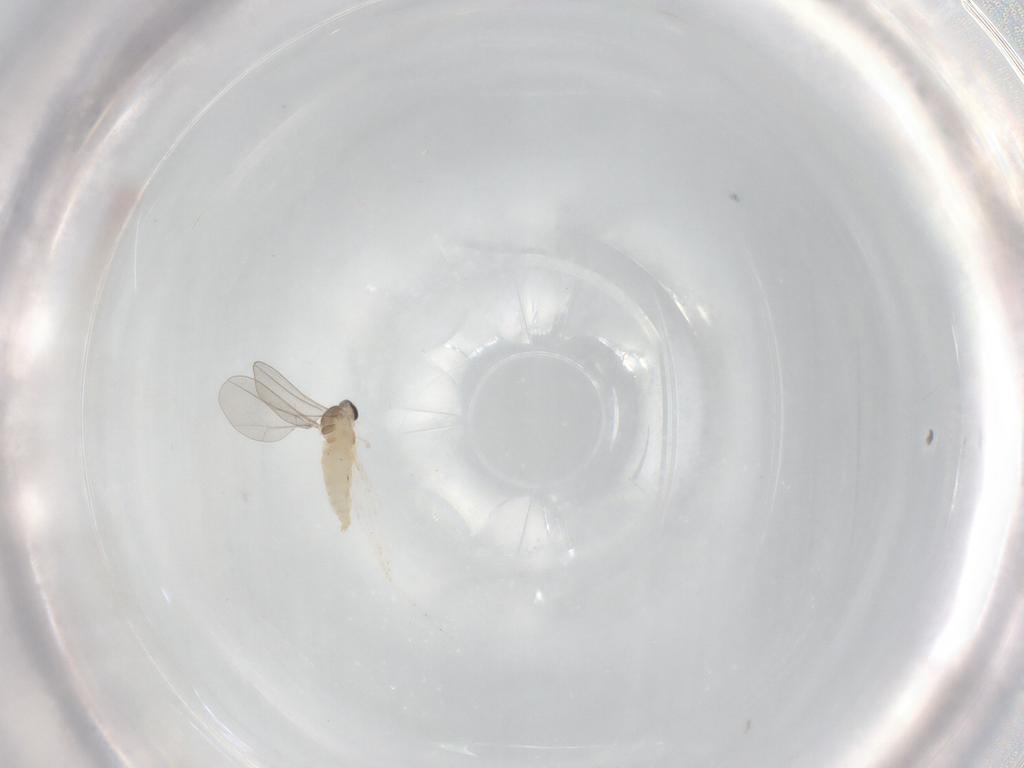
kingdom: Animalia
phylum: Arthropoda
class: Insecta
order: Diptera
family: Cecidomyiidae
